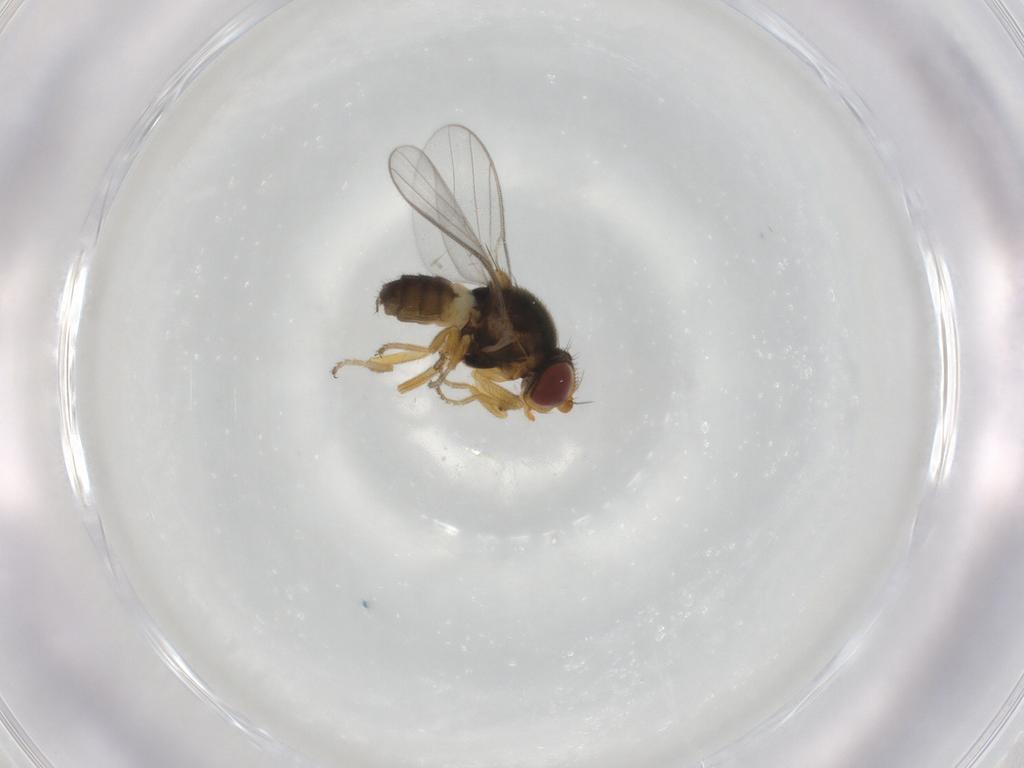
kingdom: Animalia
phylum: Arthropoda
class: Insecta
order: Diptera
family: Chloropidae
